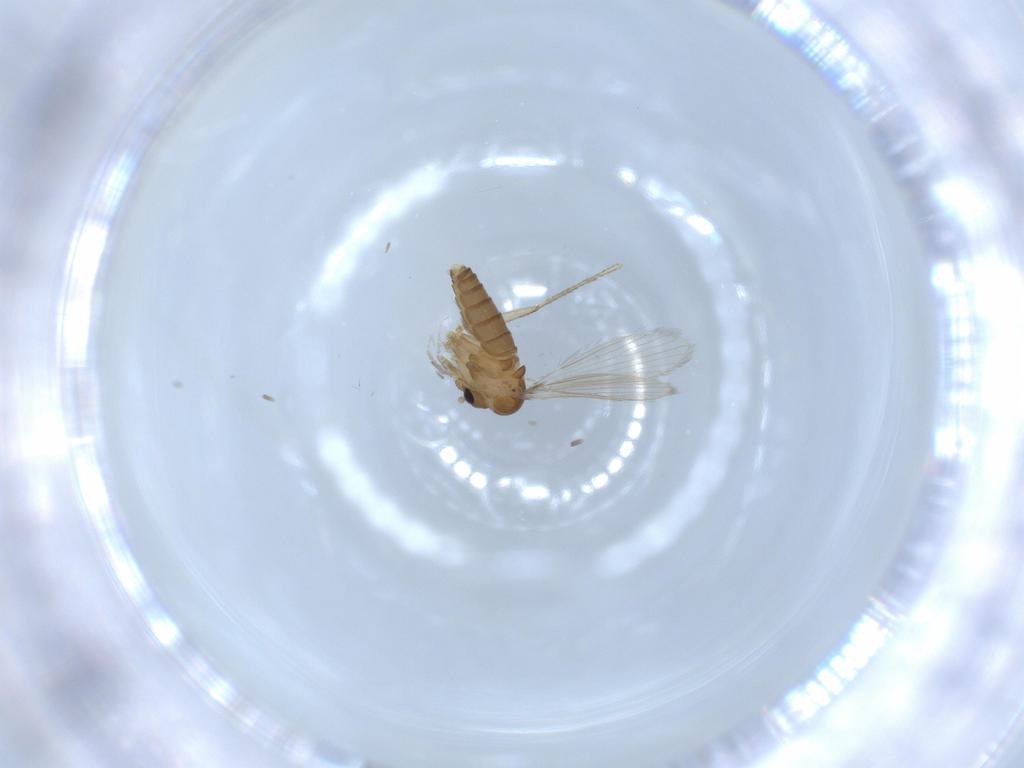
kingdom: Animalia
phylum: Arthropoda
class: Insecta
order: Diptera
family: Psychodidae
